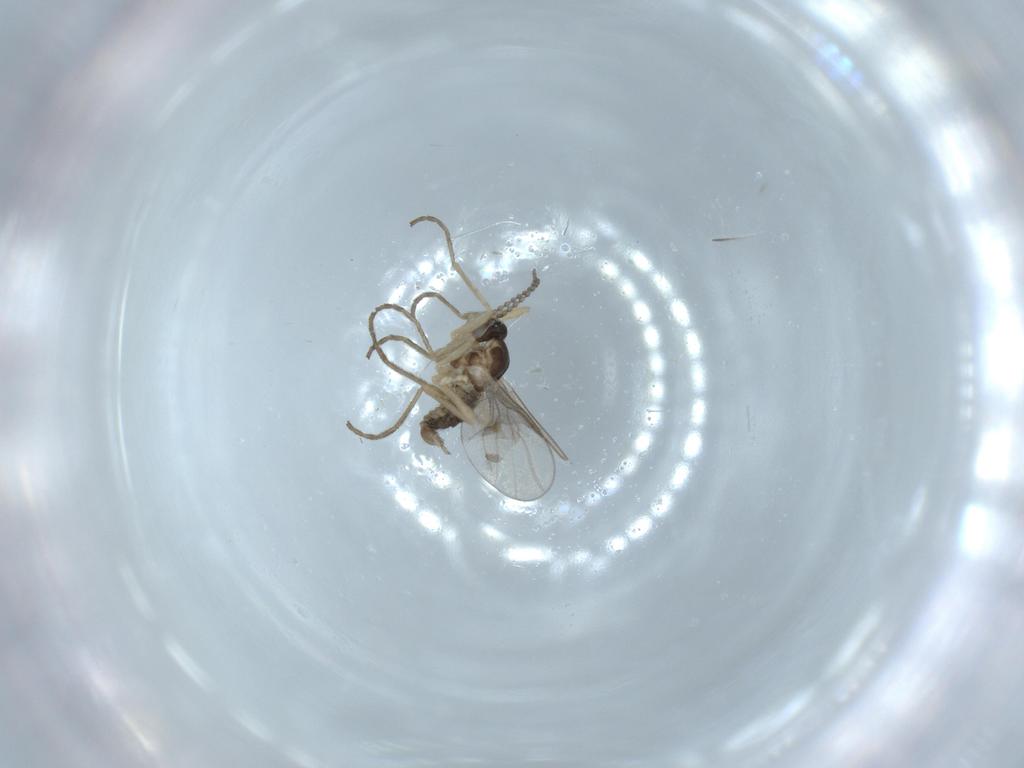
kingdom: Animalia
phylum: Arthropoda
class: Insecta
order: Diptera
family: Cecidomyiidae
